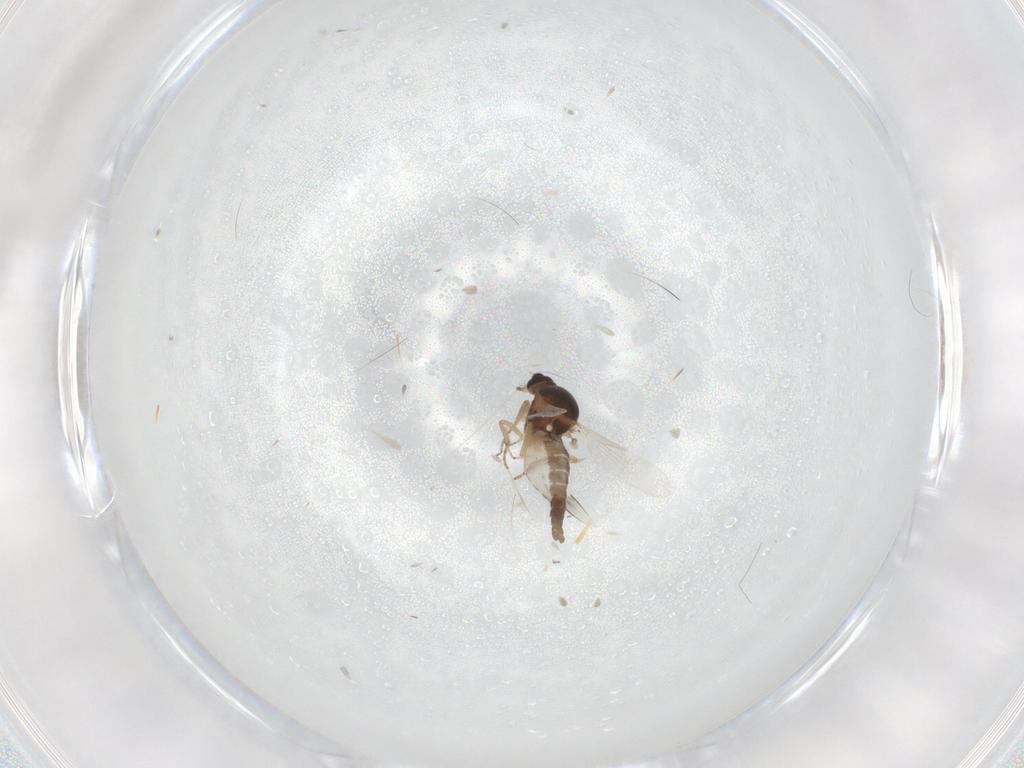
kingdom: Animalia
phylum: Arthropoda
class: Insecta
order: Diptera
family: Ceratopogonidae
